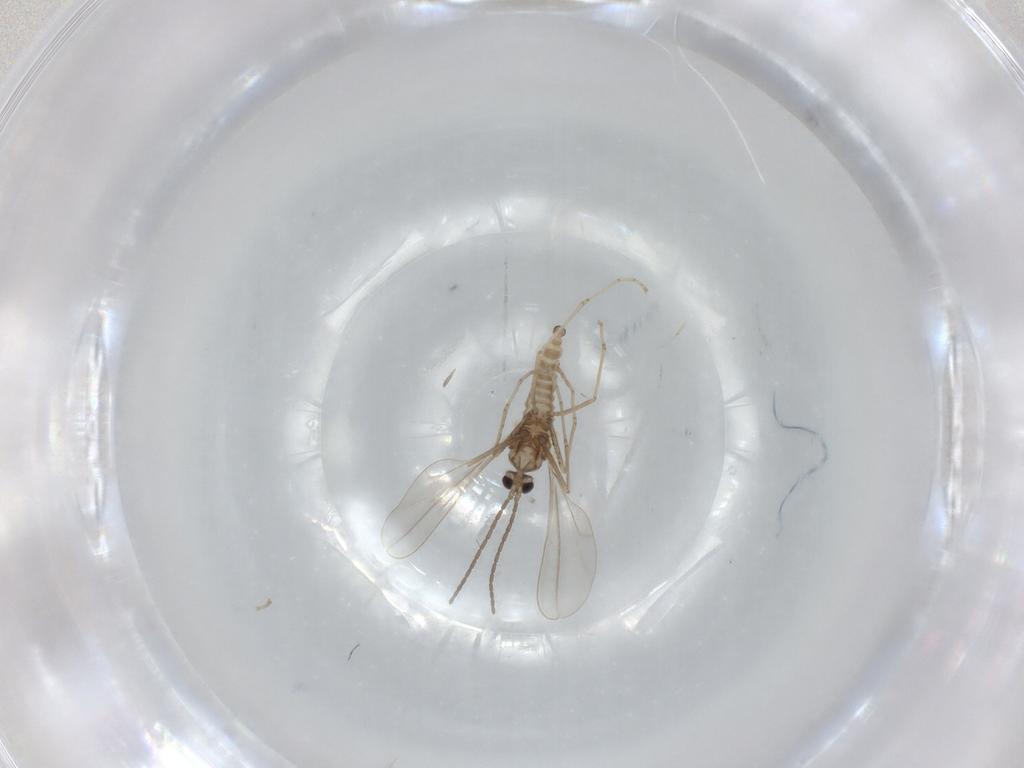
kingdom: Animalia
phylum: Arthropoda
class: Insecta
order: Diptera
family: Cecidomyiidae
